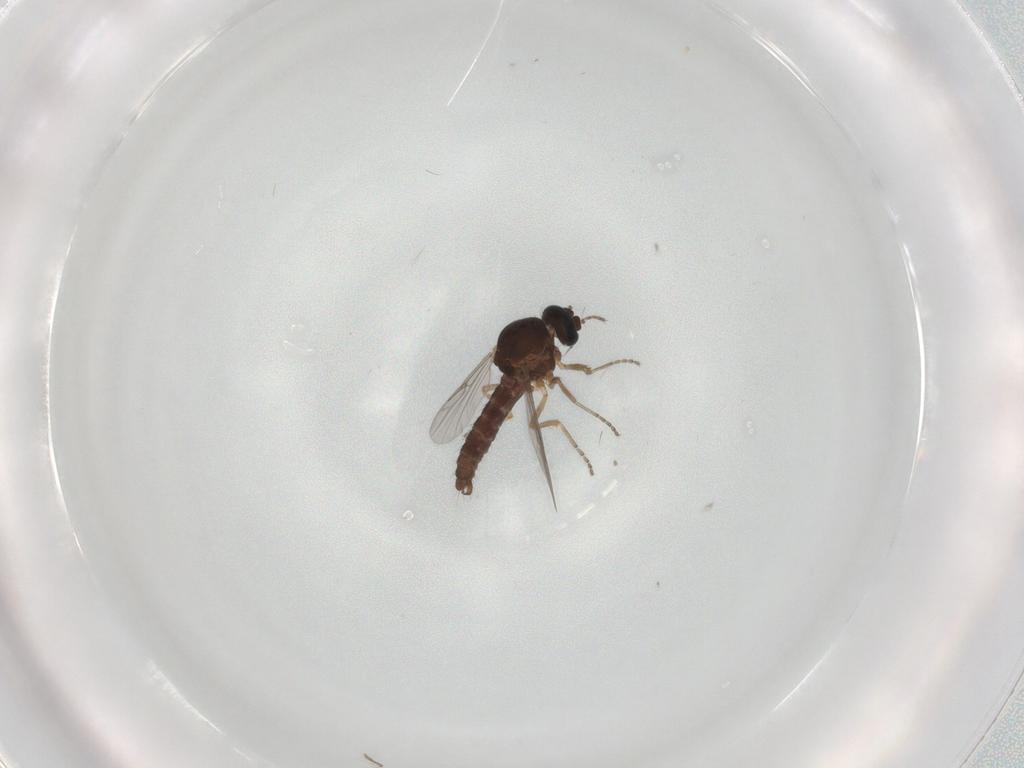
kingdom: Animalia
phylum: Arthropoda
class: Insecta
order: Diptera
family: Ceratopogonidae
